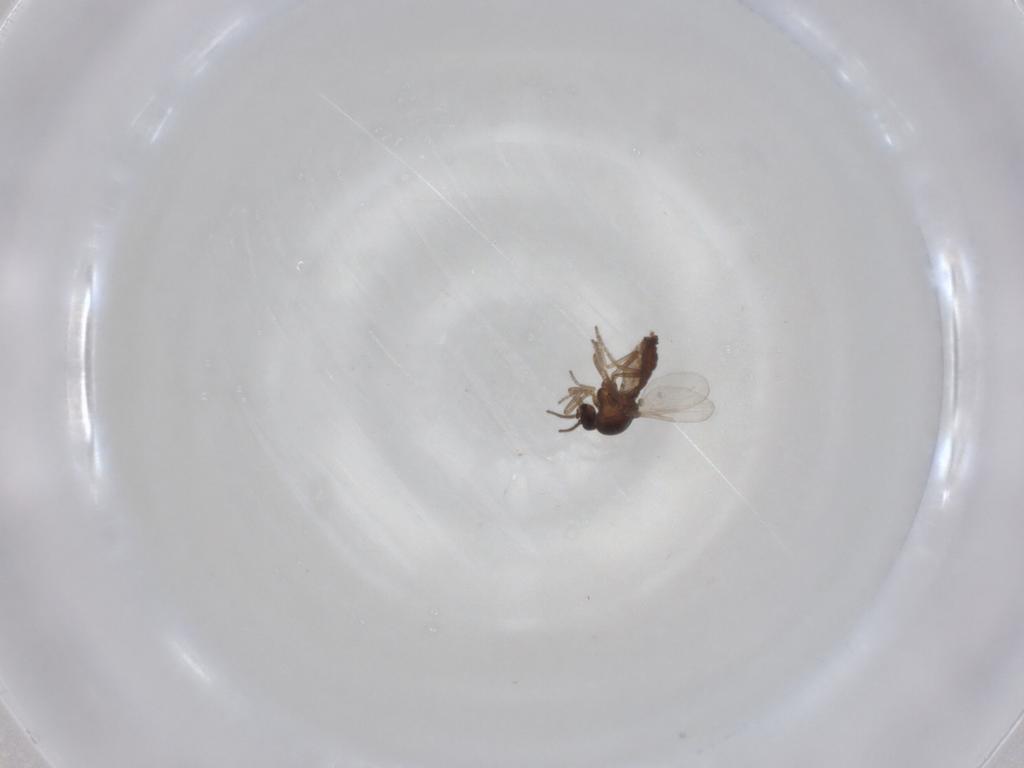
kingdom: Animalia
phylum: Arthropoda
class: Insecta
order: Diptera
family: Ceratopogonidae
